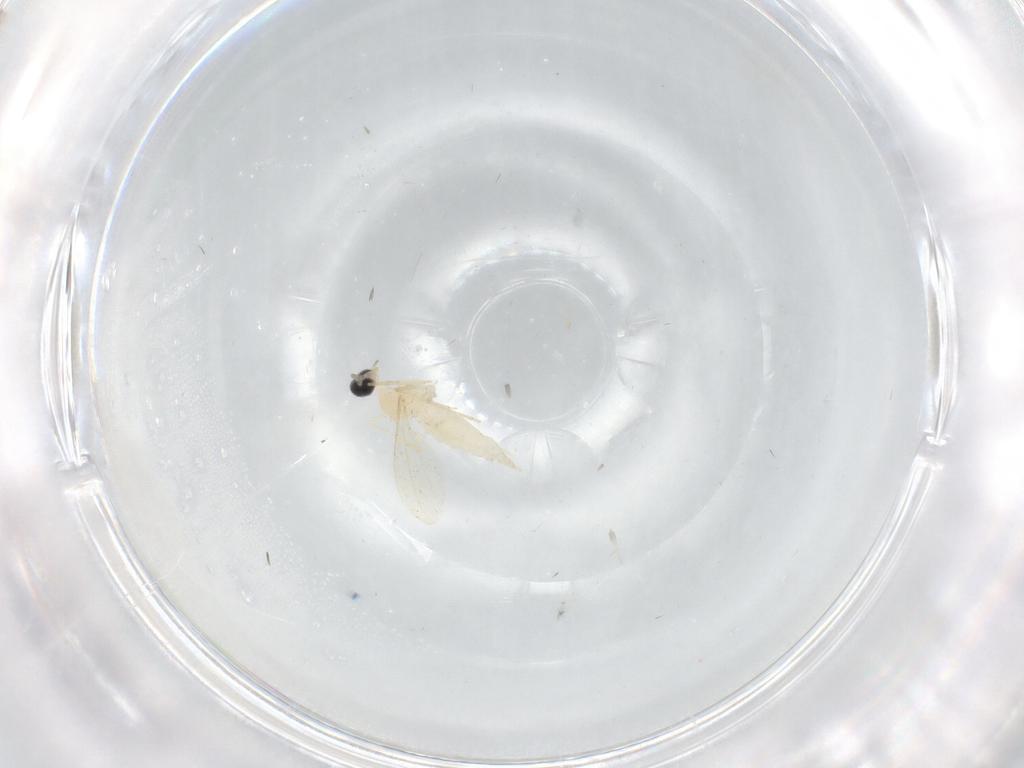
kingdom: Animalia
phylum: Arthropoda
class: Insecta
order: Diptera
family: Cecidomyiidae
